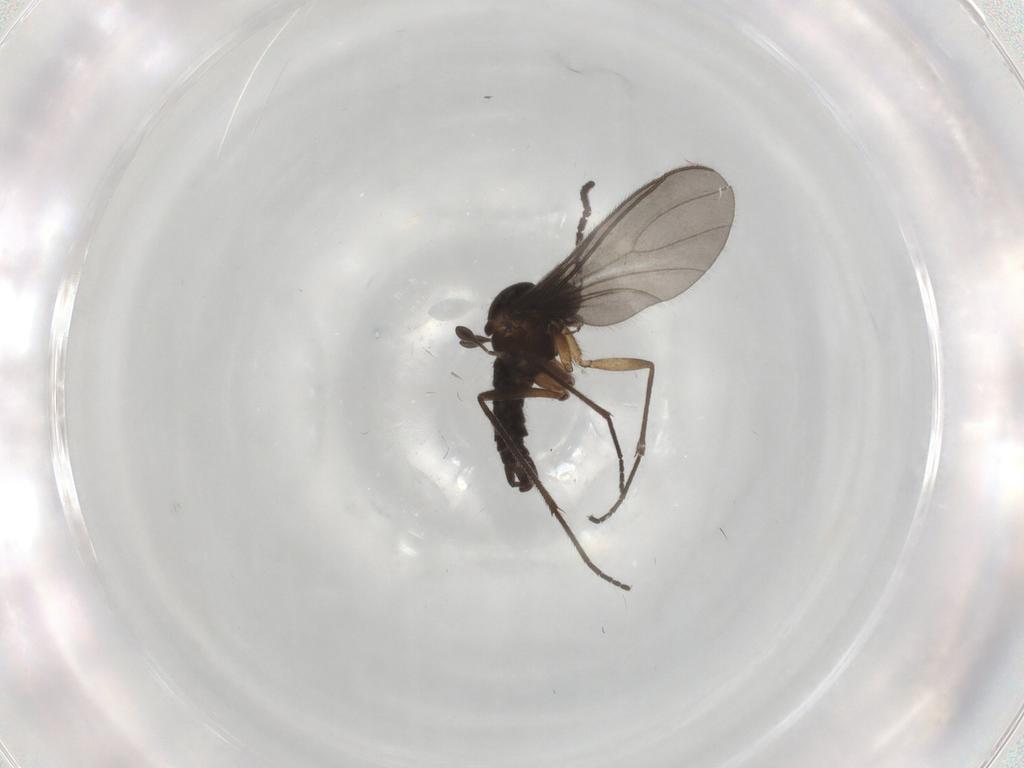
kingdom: Animalia
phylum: Arthropoda
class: Insecta
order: Diptera
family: Sciaridae
